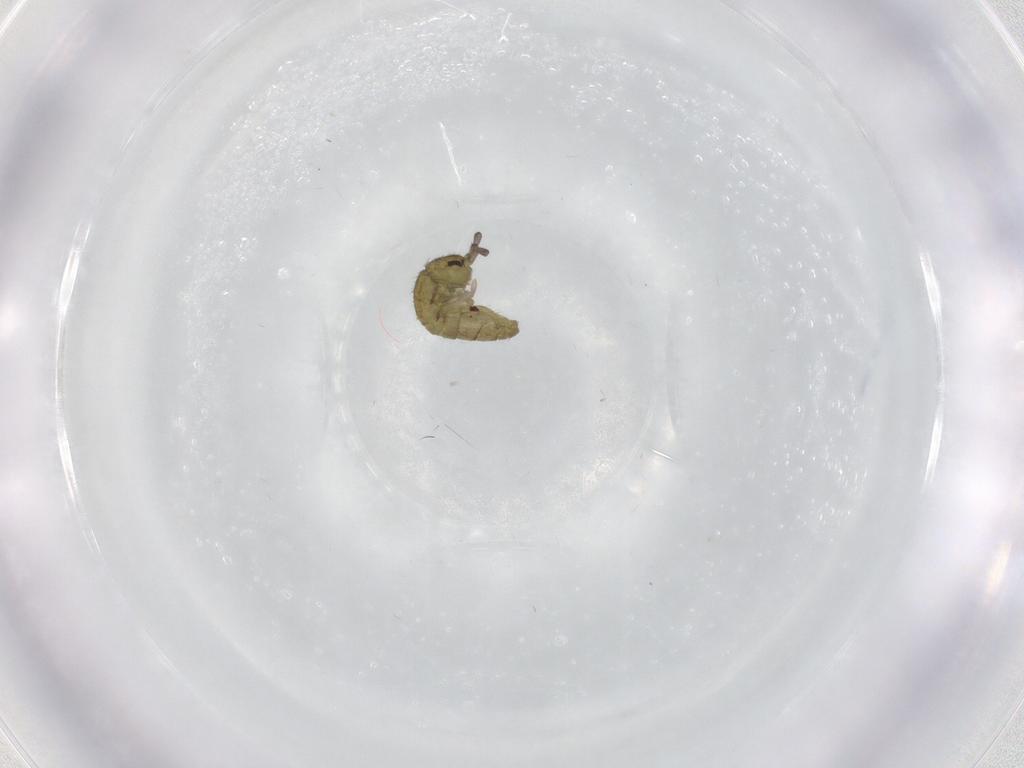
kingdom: Animalia
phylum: Arthropoda
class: Collembola
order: Entomobryomorpha
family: Isotomidae
